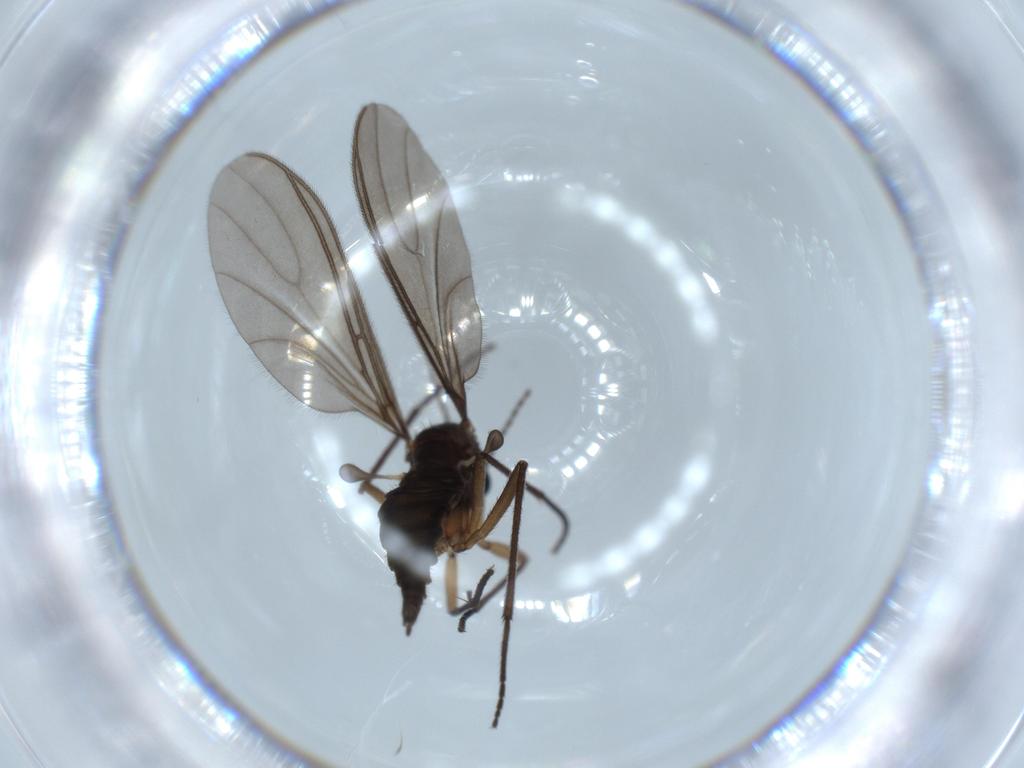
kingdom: Animalia
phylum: Arthropoda
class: Insecta
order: Diptera
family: Sciaridae
